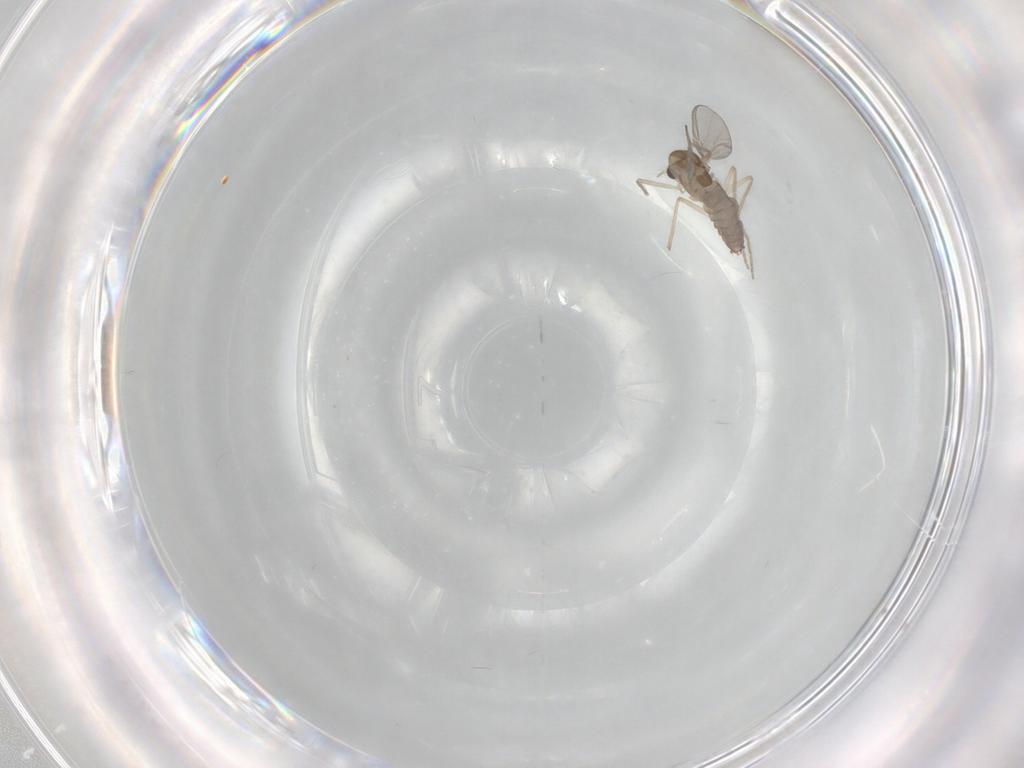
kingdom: Animalia
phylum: Arthropoda
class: Insecta
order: Diptera
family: Chironomidae
